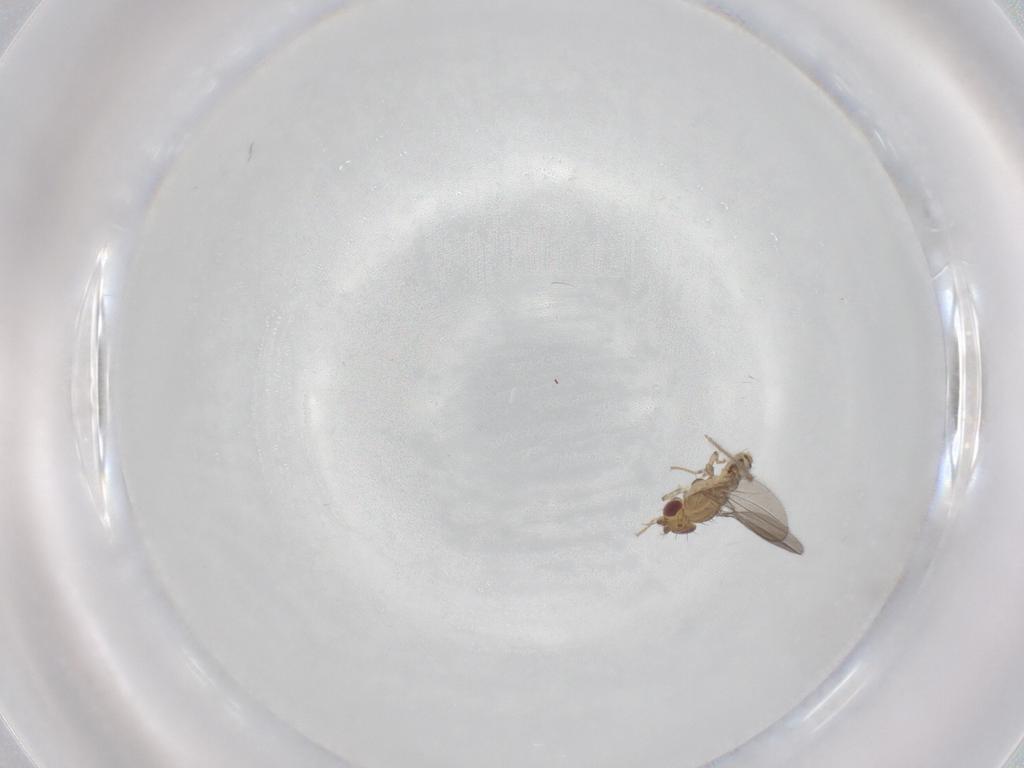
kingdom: Animalia
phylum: Arthropoda
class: Insecta
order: Diptera
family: Asteiidae
